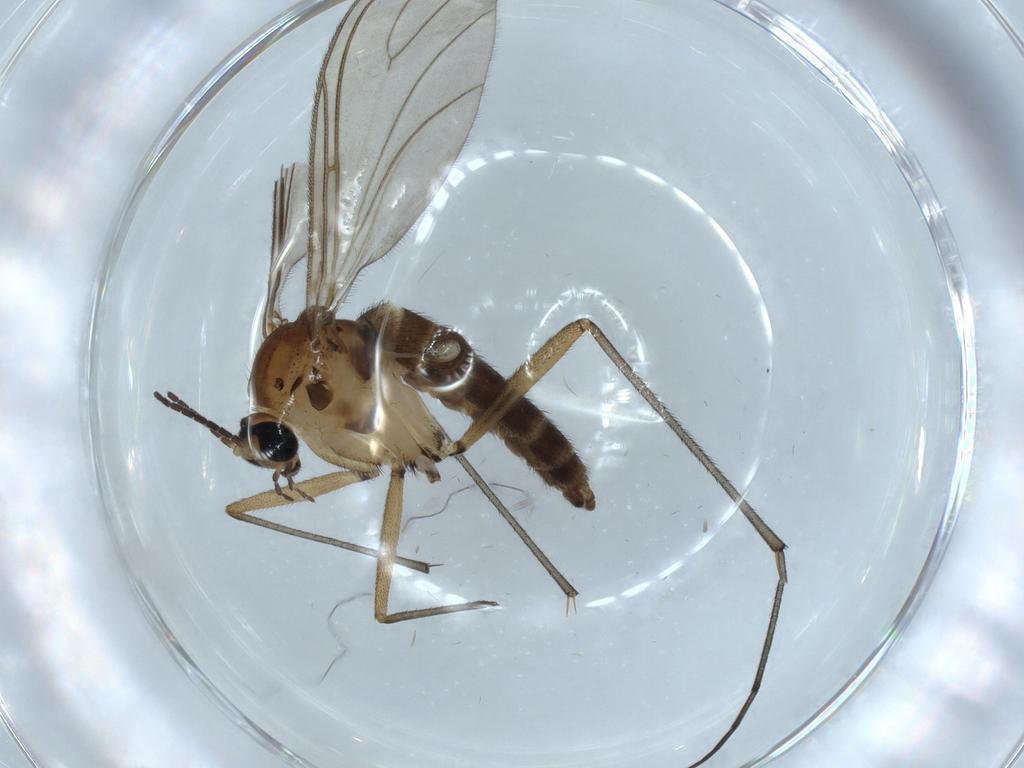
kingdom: Animalia
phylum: Arthropoda
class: Insecta
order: Diptera
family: Sciaridae
